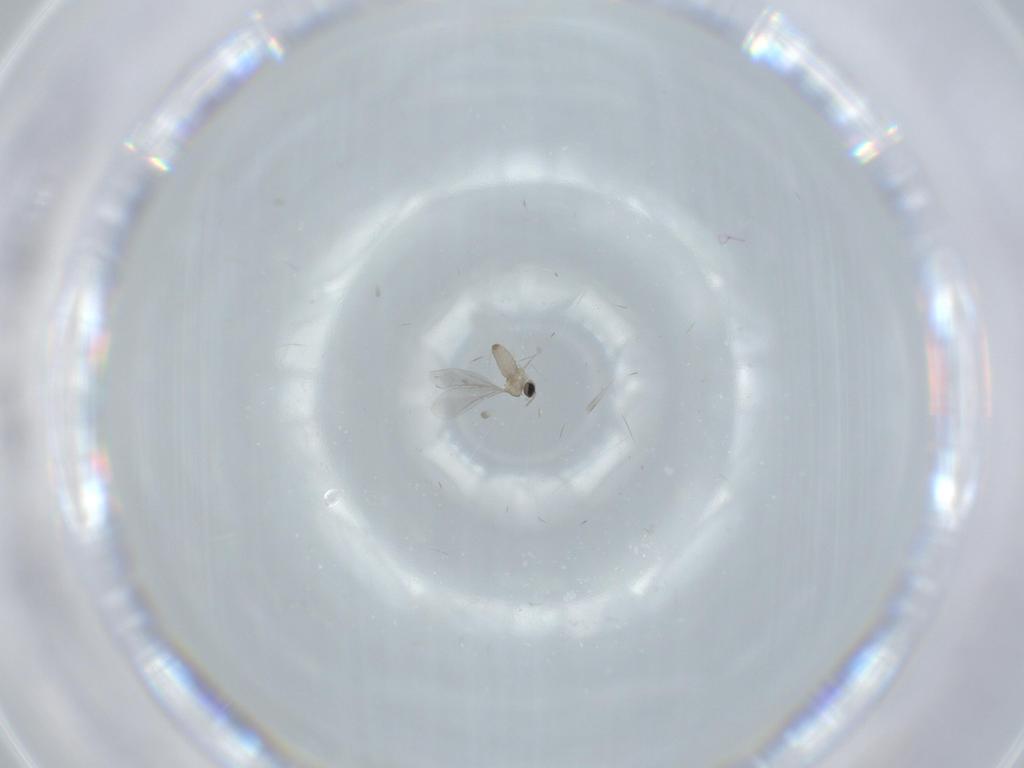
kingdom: Animalia
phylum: Arthropoda
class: Insecta
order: Diptera
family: Cecidomyiidae
